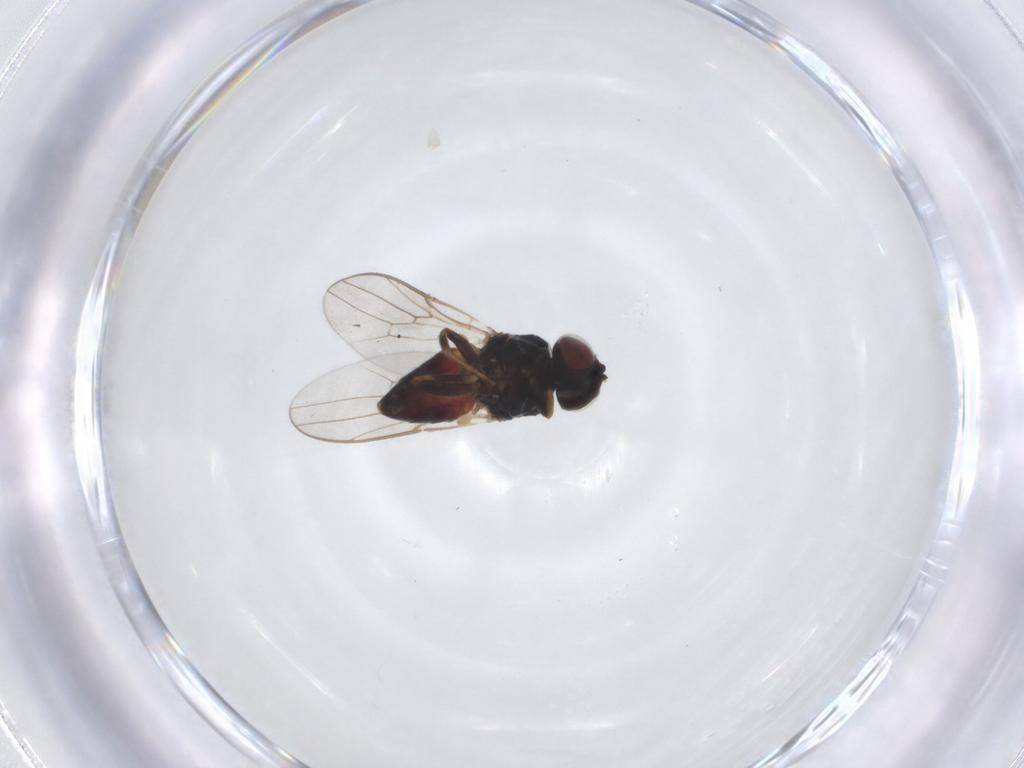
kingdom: Animalia
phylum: Arthropoda
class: Insecta
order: Diptera
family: Chloropidae
